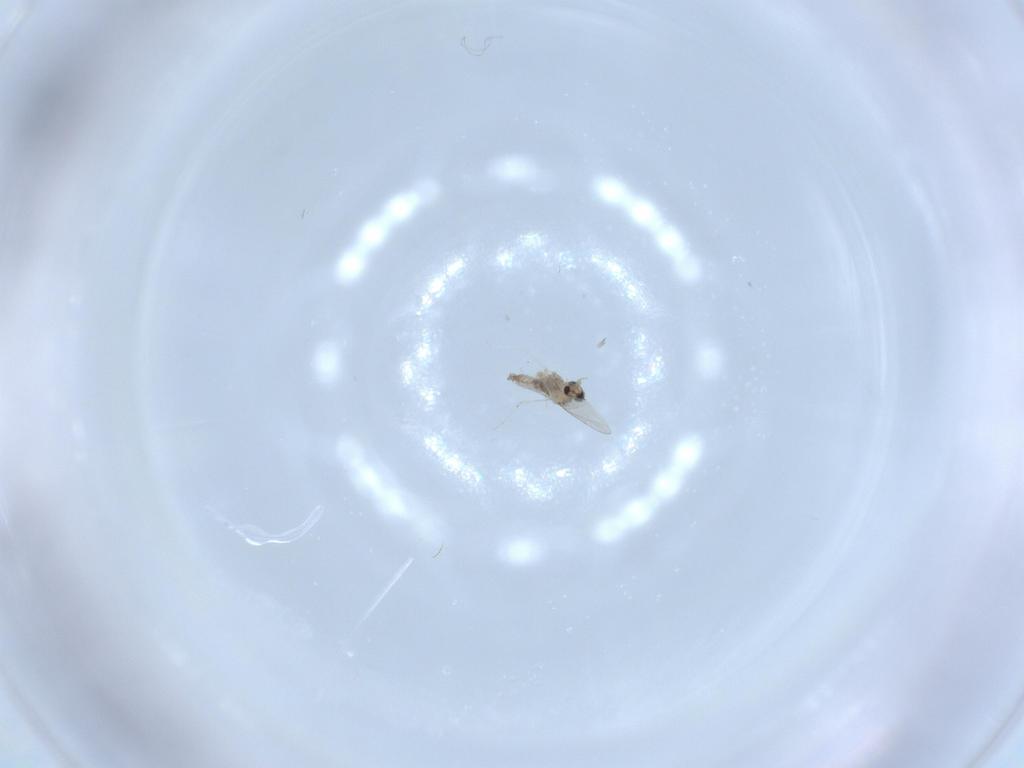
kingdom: Animalia
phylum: Arthropoda
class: Insecta
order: Diptera
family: Cecidomyiidae
